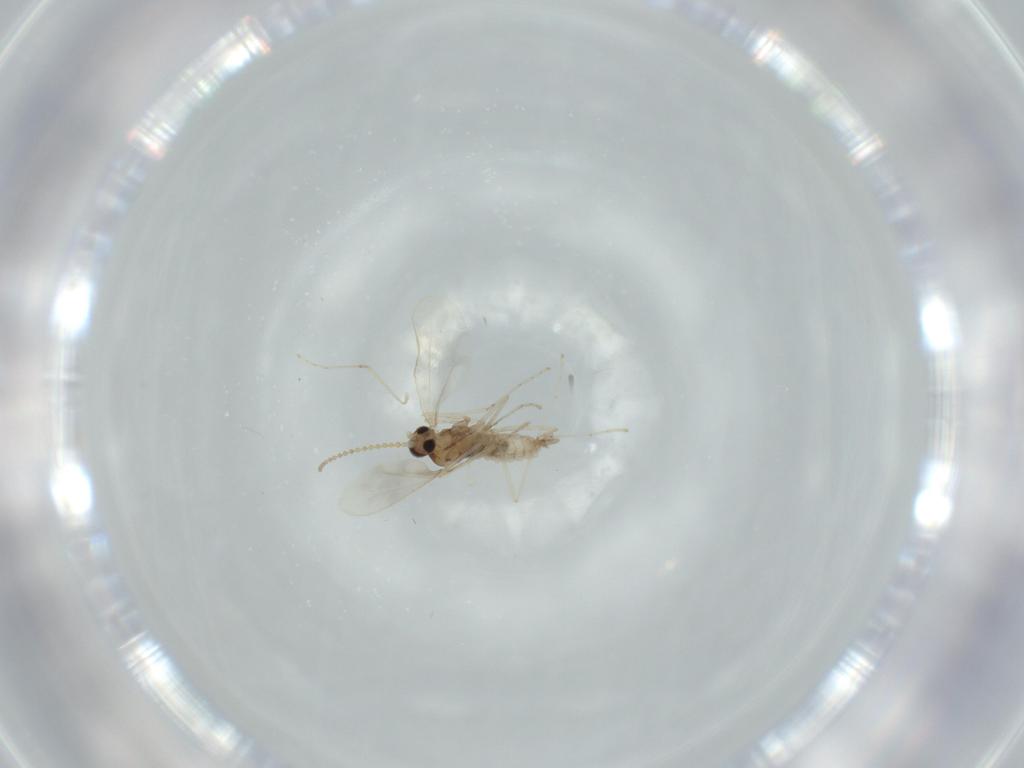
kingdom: Animalia
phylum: Arthropoda
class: Insecta
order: Diptera
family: Cecidomyiidae
